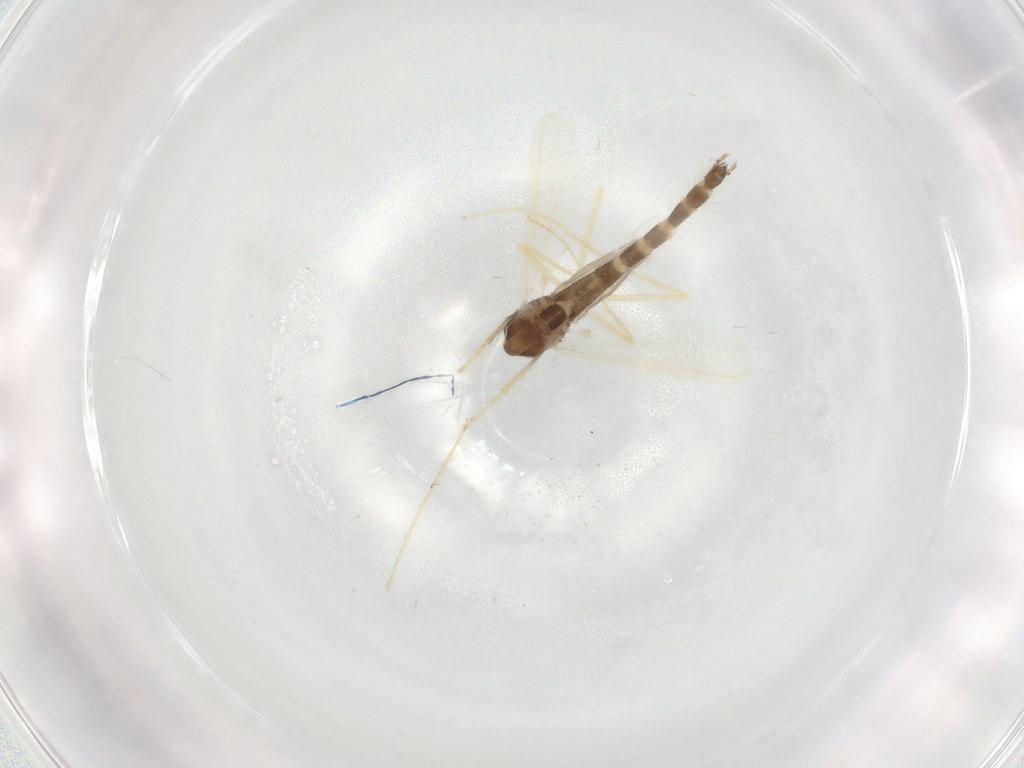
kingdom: Animalia
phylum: Arthropoda
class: Insecta
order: Diptera
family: Chironomidae
